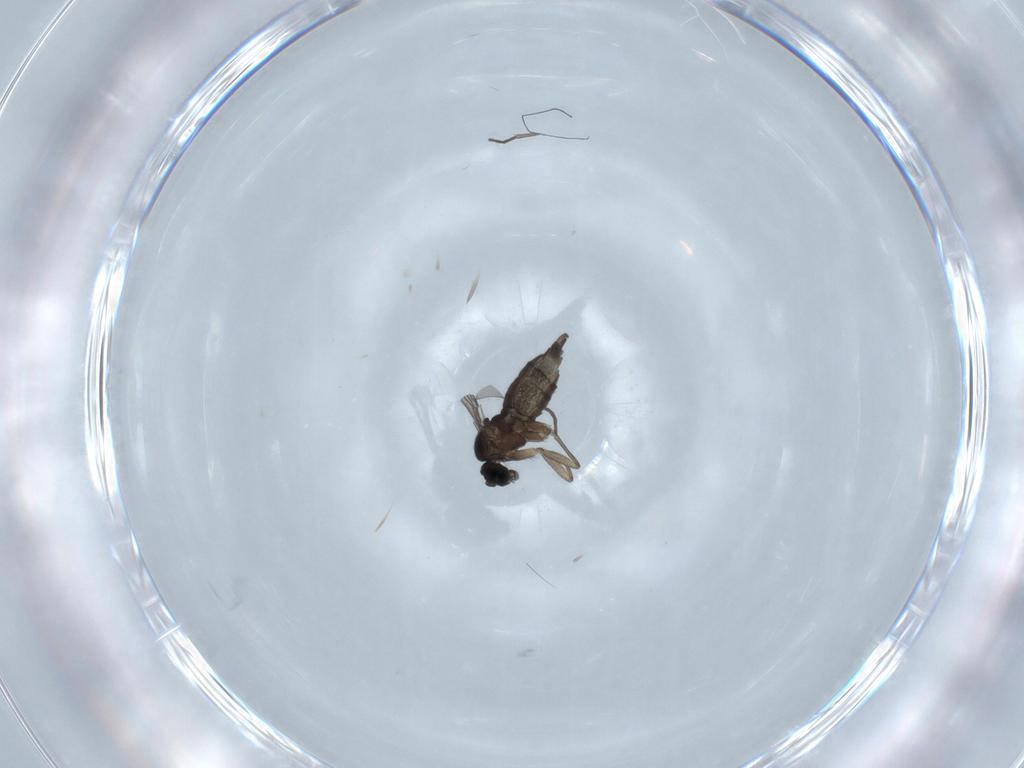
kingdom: Animalia
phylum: Arthropoda
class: Insecta
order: Diptera
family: Sciaridae
